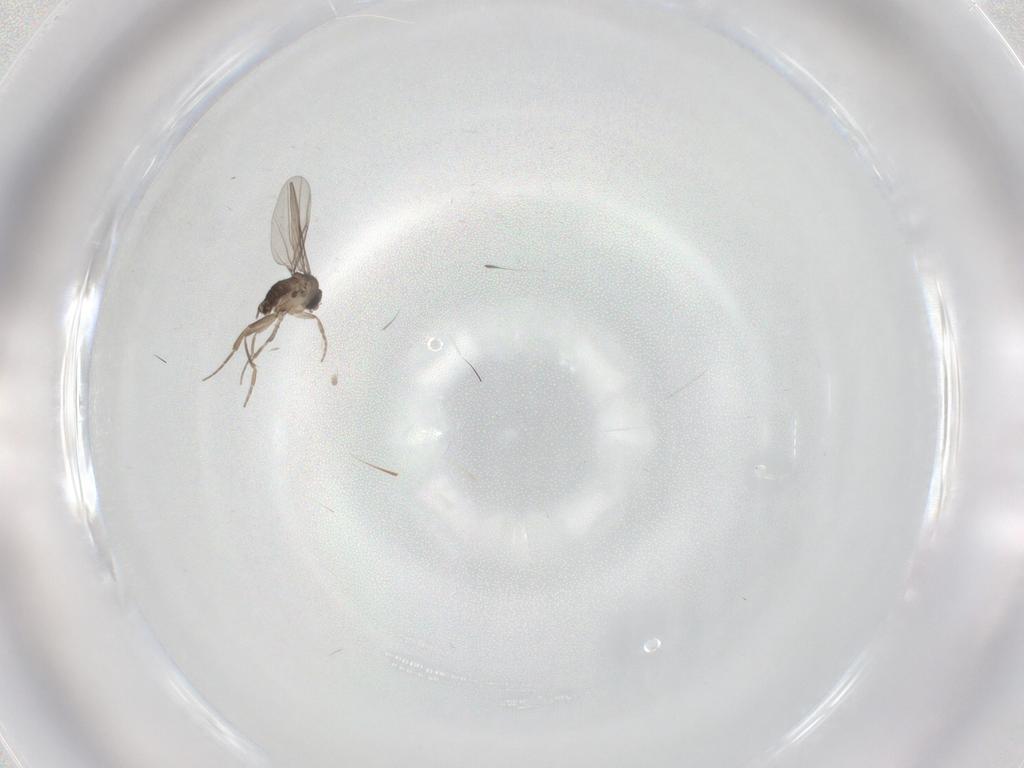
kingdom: Animalia
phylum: Arthropoda
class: Insecta
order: Diptera
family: Phoridae
